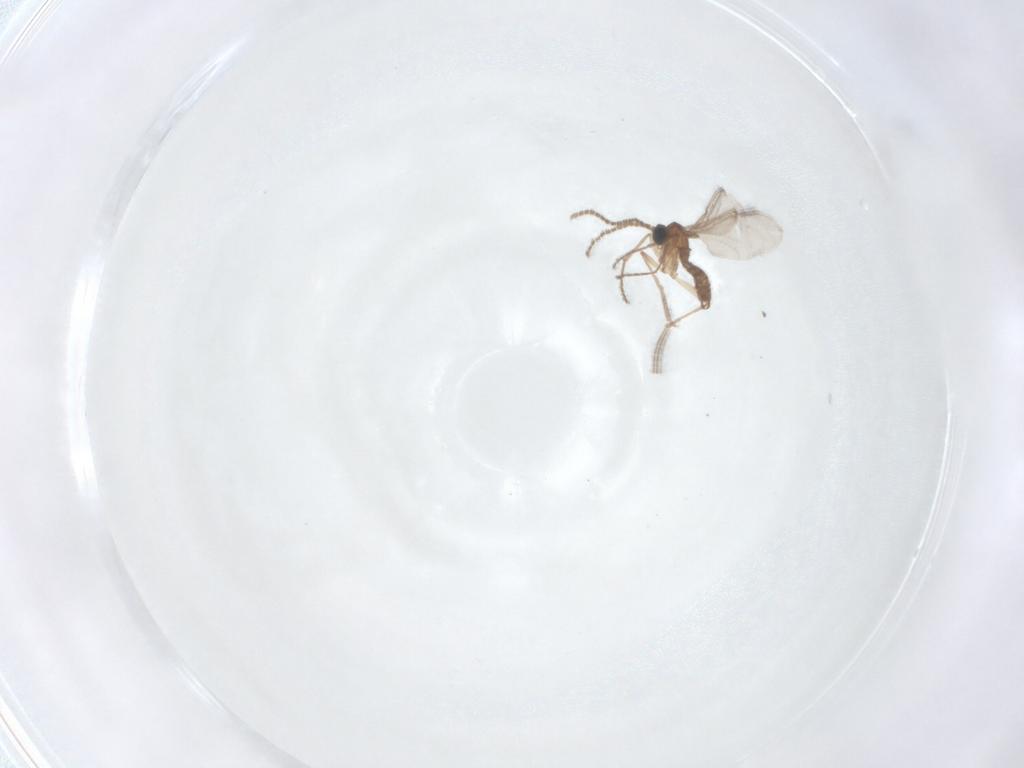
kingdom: Animalia
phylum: Arthropoda
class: Insecta
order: Diptera
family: Sciaridae
